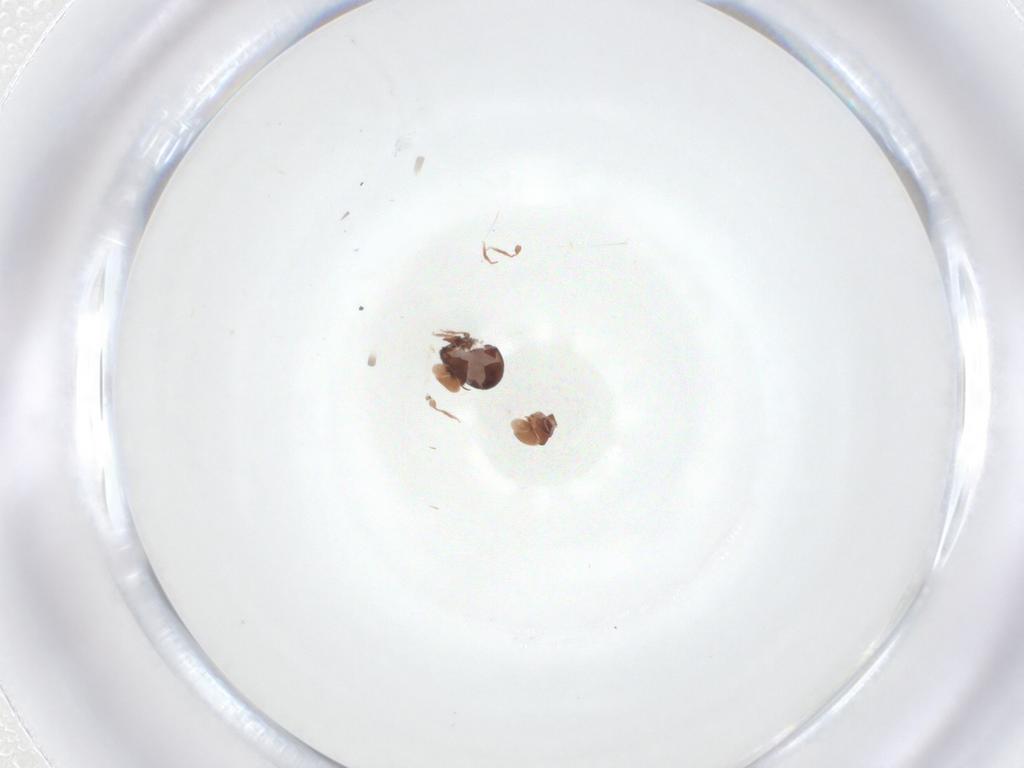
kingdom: Animalia
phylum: Arthropoda
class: Insecta
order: Diptera
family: Cecidomyiidae
